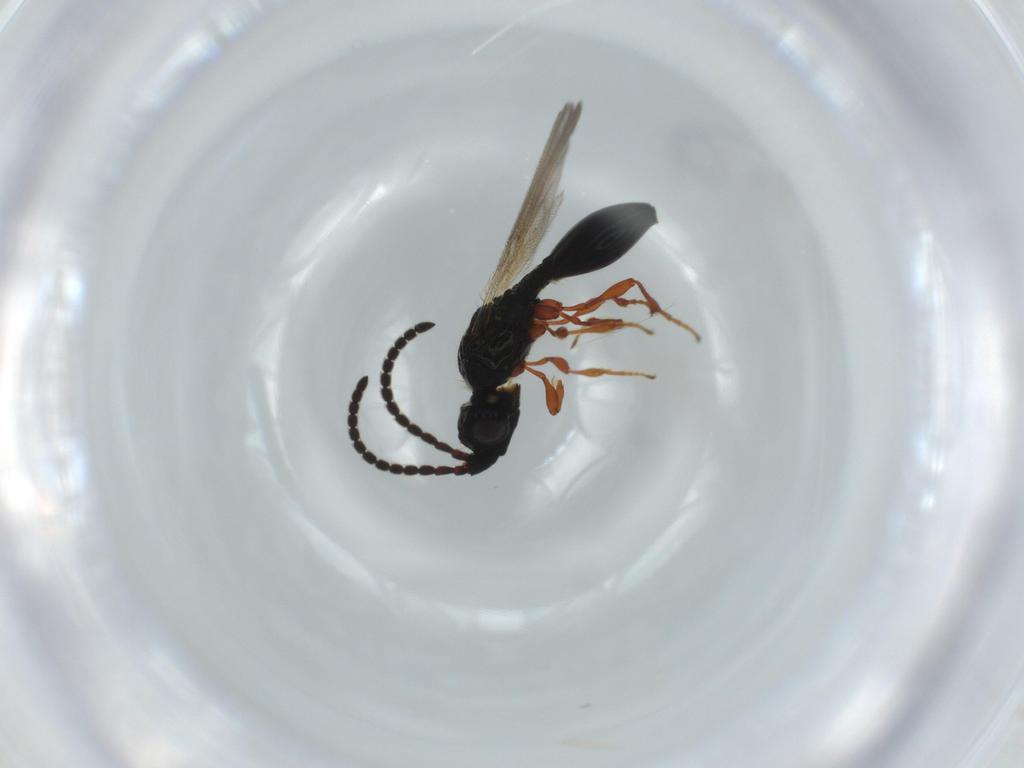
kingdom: Animalia
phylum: Arthropoda
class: Insecta
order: Hymenoptera
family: Diapriidae
